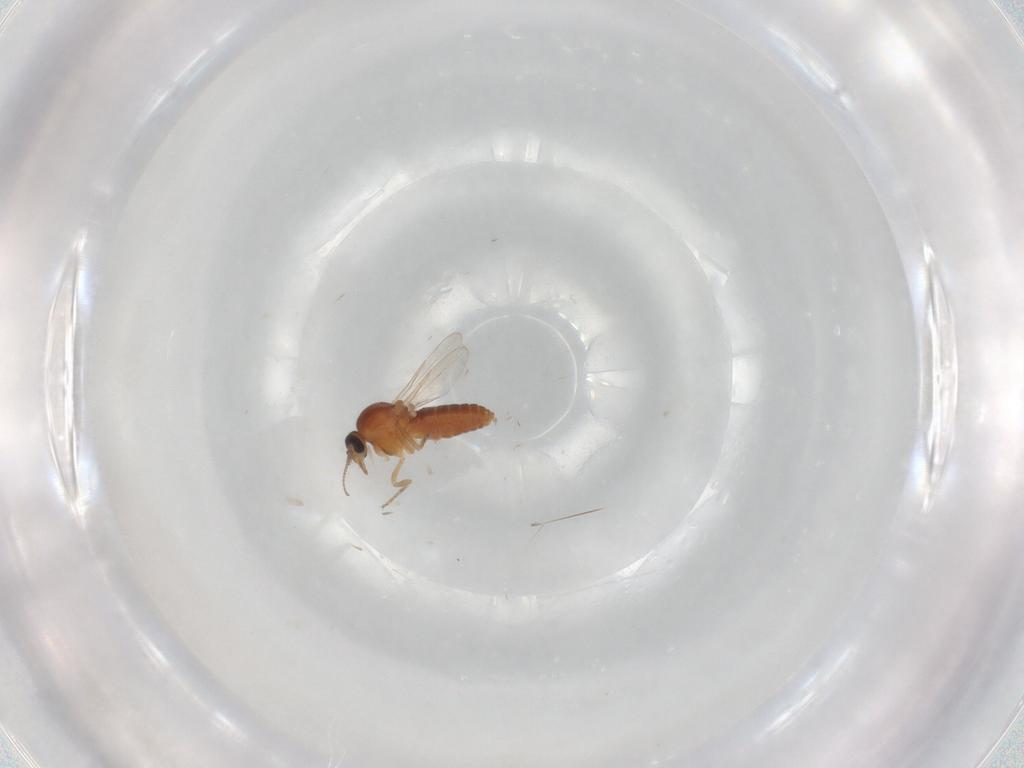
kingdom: Animalia
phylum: Arthropoda
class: Insecta
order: Diptera
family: Ceratopogonidae
